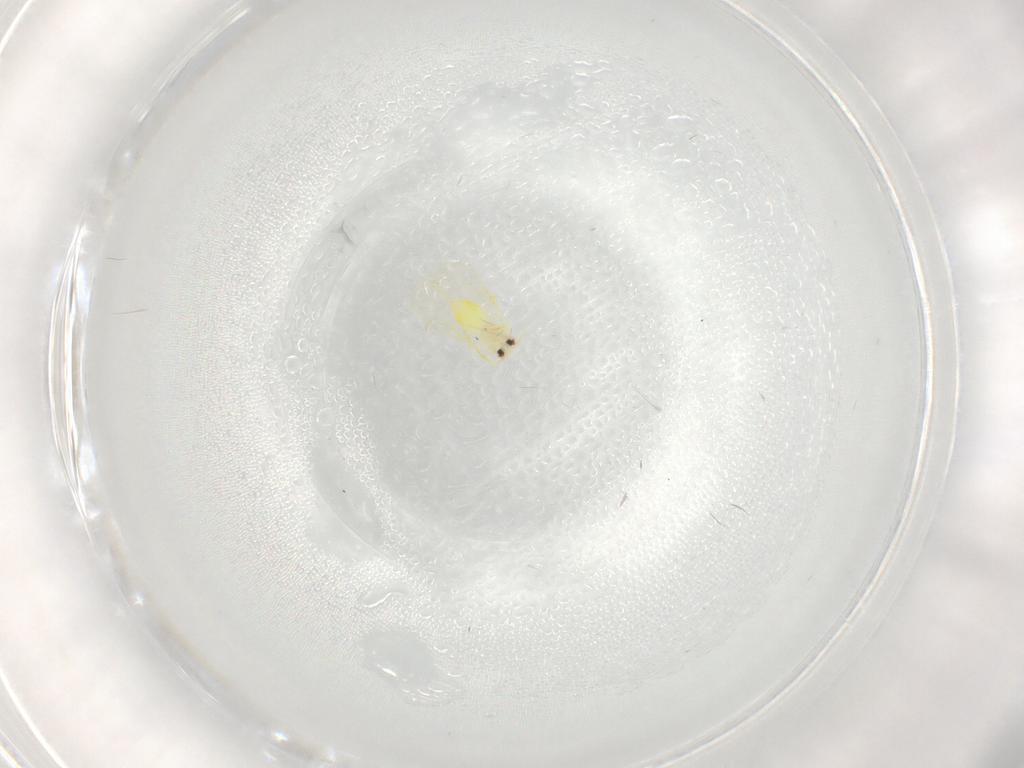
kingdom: Animalia
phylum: Arthropoda
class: Insecta
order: Hemiptera
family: Aleyrodidae
